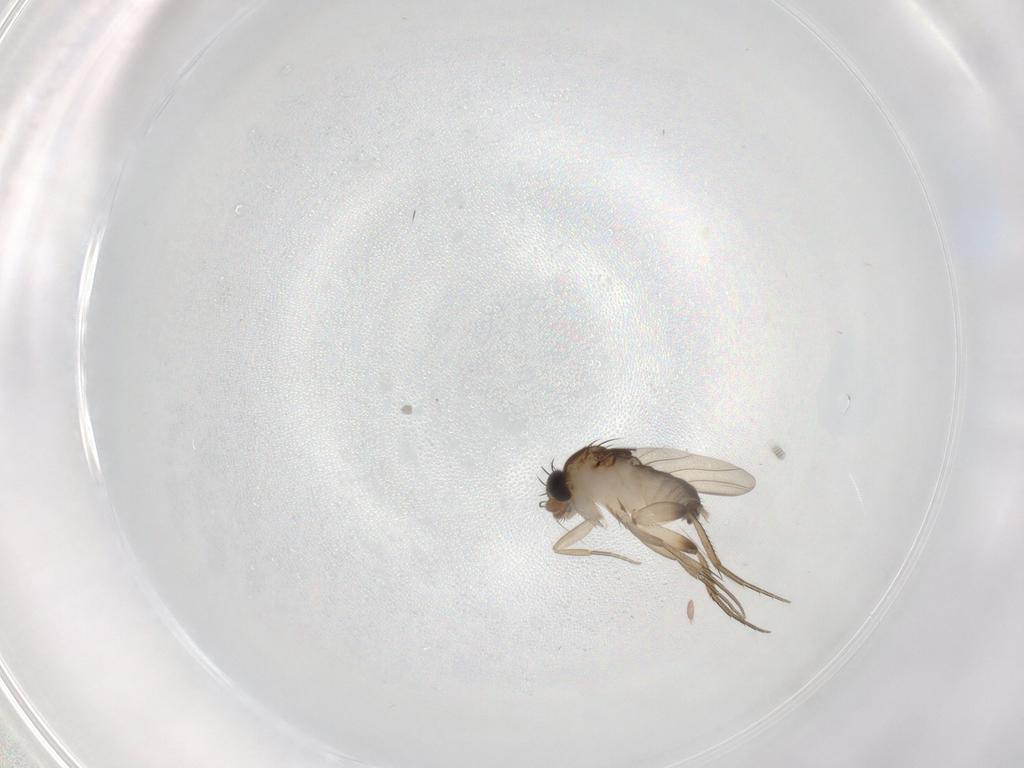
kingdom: Animalia
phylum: Arthropoda
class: Insecta
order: Diptera
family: Phoridae
